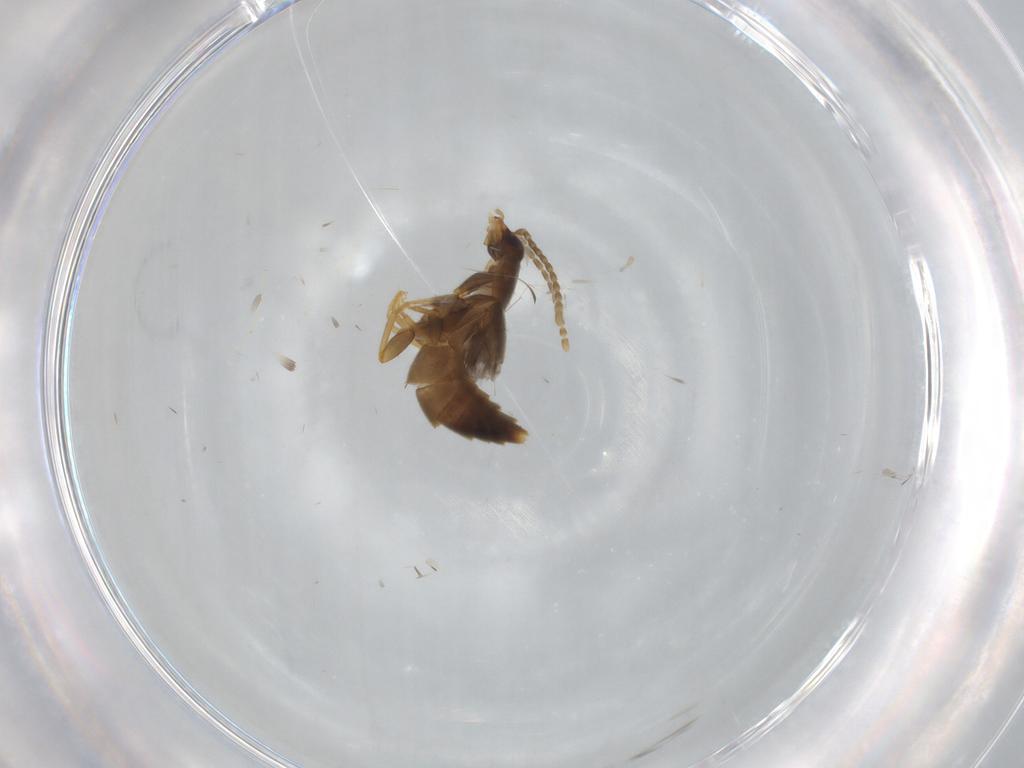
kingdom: Animalia
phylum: Arthropoda
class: Insecta
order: Coleoptera
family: Staphylinidae
